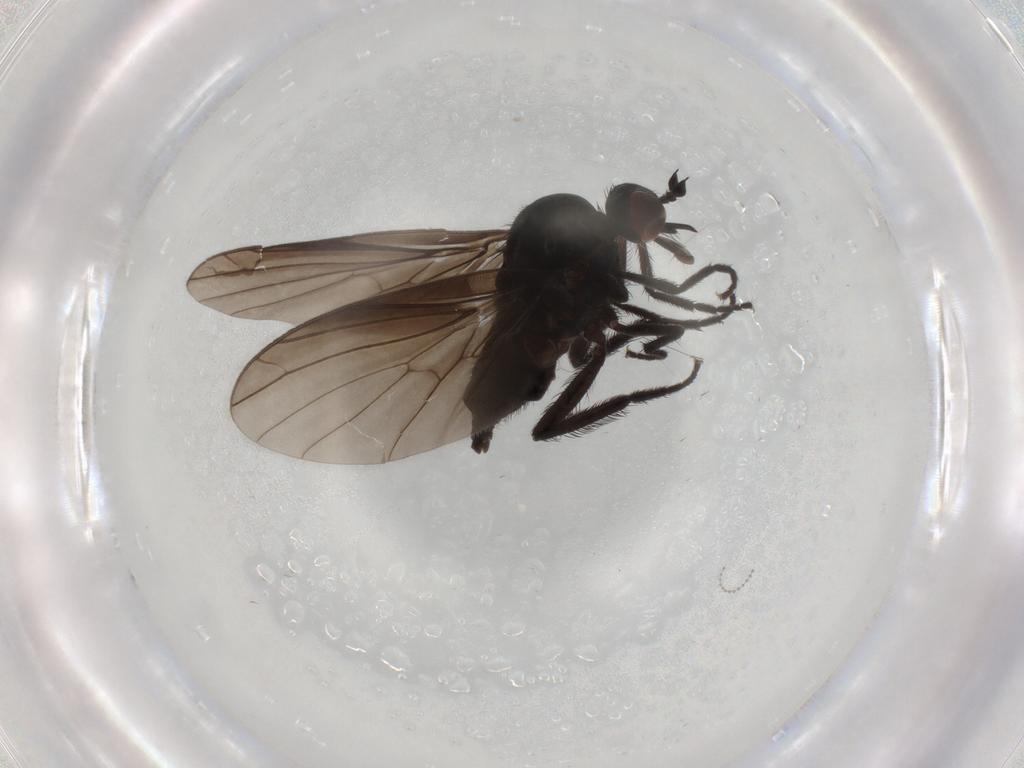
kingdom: Animalia
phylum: Arthropoda
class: Insecta
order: Diptera
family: Empididae
